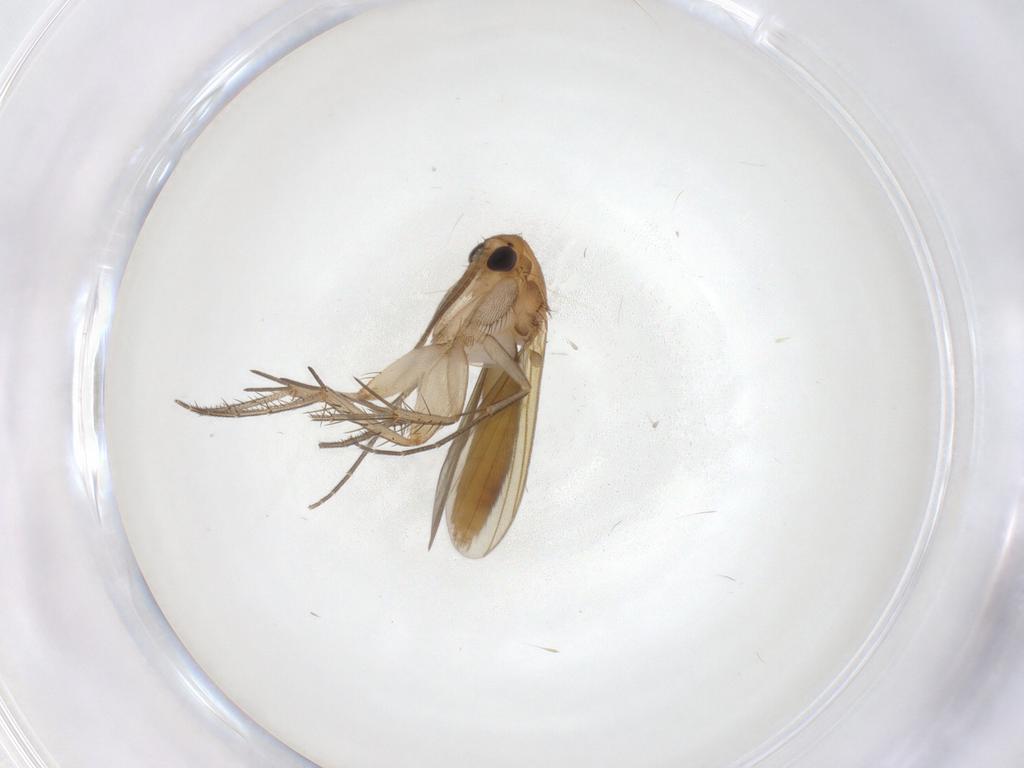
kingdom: Animalia
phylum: Arthropoda
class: Insecta
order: Diptera
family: Mycetophilidae
